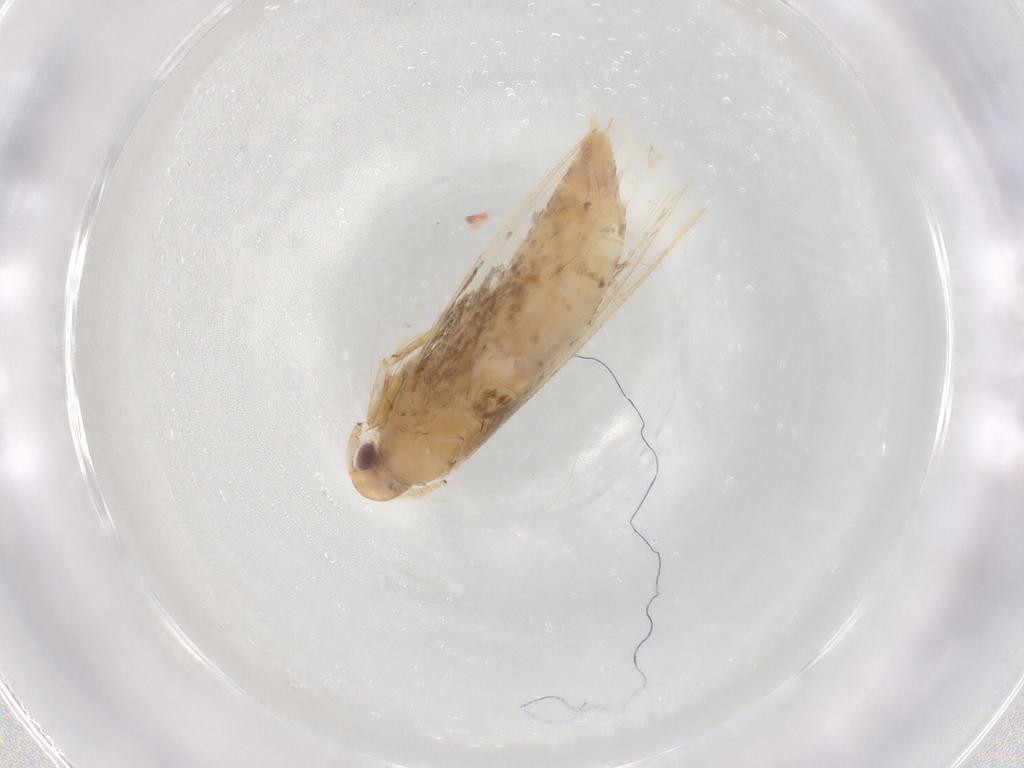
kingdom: Animalia
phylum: Arthropoda
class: Insecta
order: Lepidoptera
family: Cosmopterigidae
